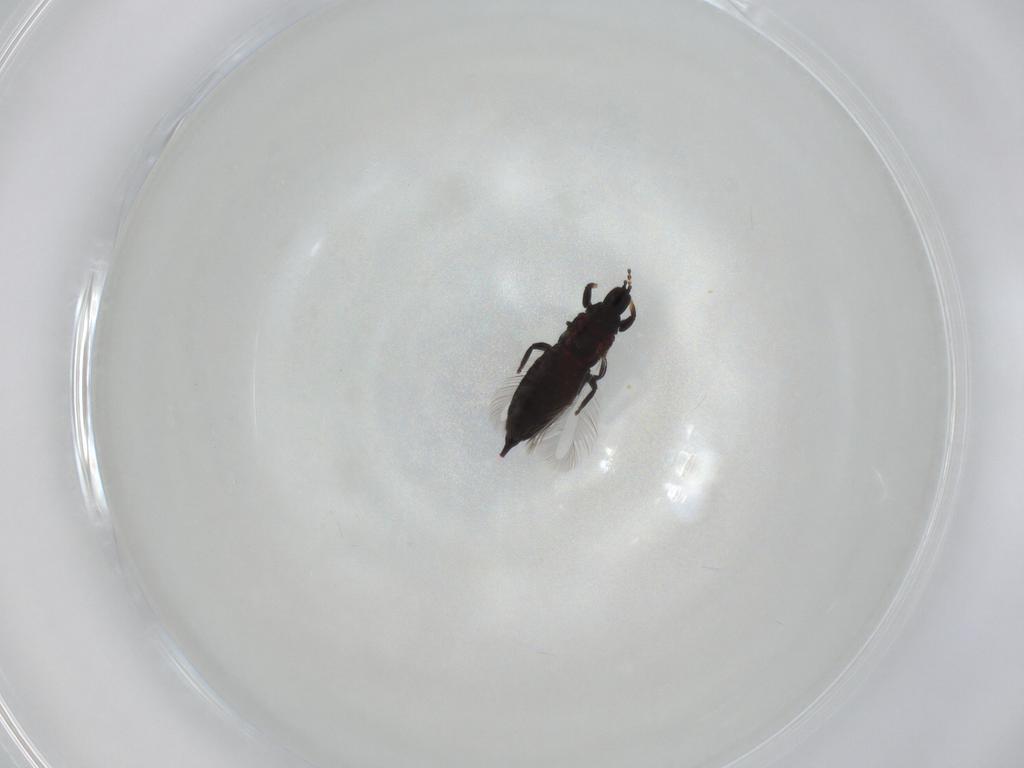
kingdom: Animalia
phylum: Arthropoda
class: Insecta
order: Thysanoptera
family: Phlaeothripidae
